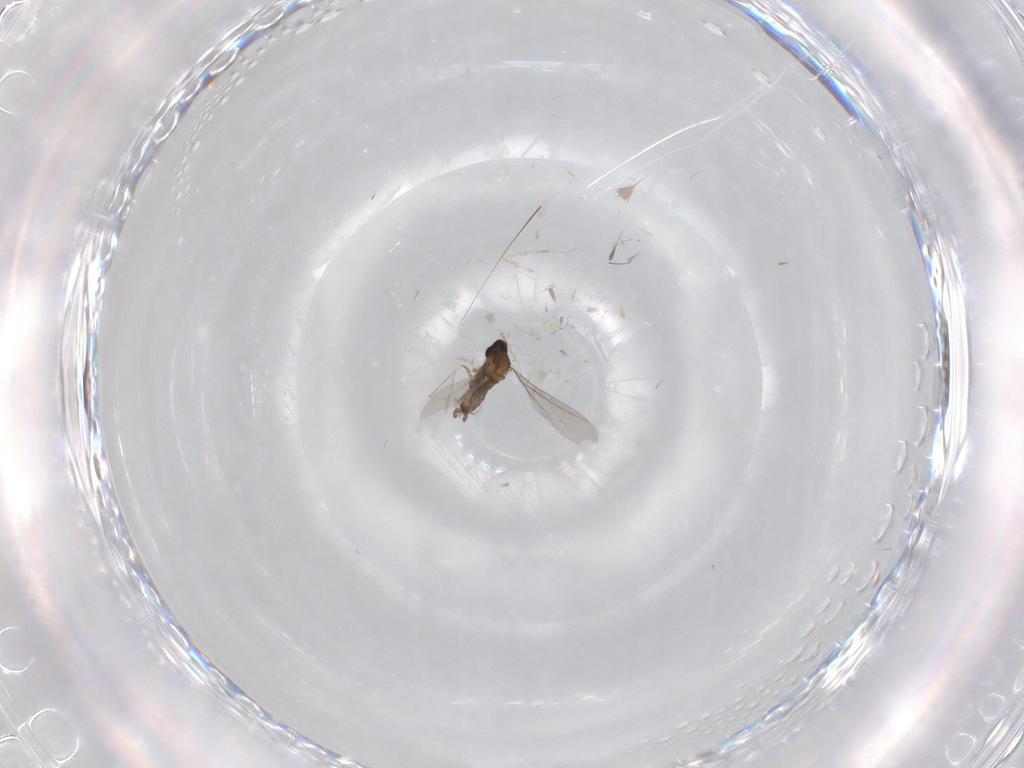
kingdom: Animalia
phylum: Arthropoda
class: Insecta
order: Diptera
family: Cecidomyiidae
